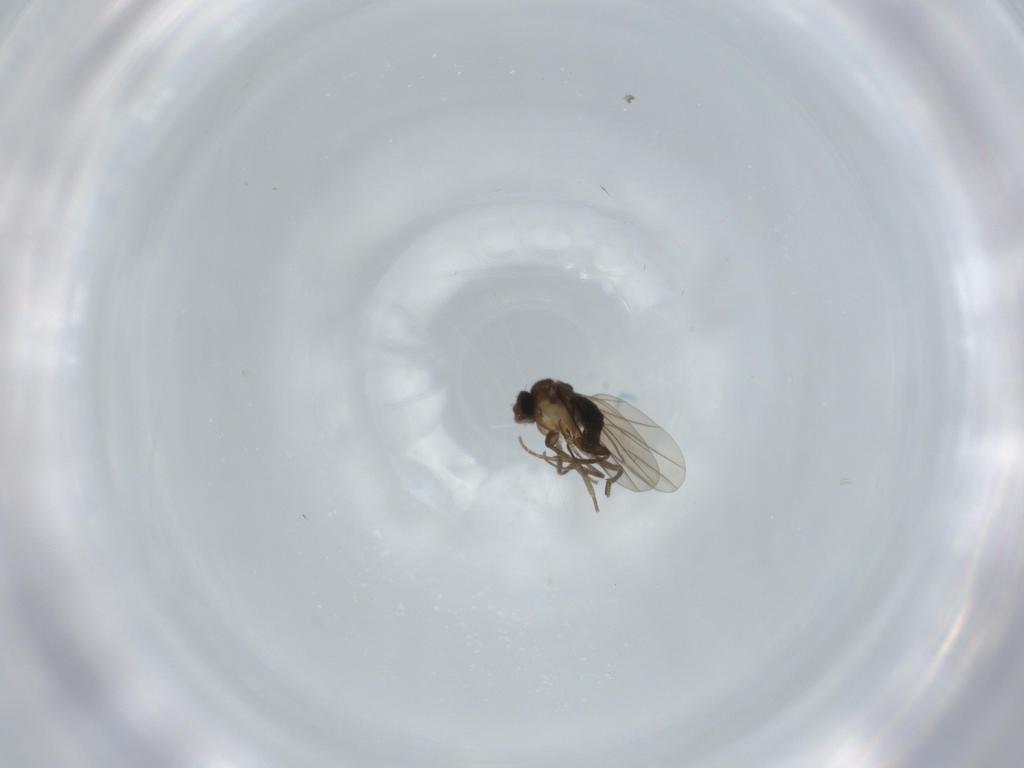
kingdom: Animalia
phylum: Arthropoda
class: Insecta
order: Diptera
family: Phoridae
